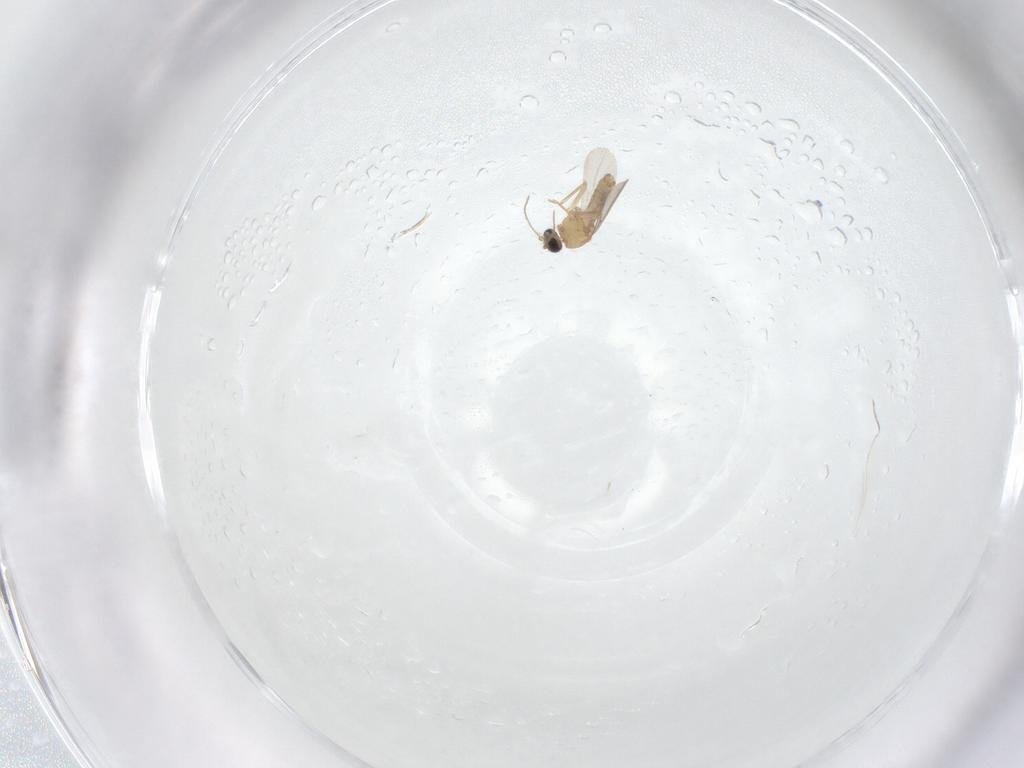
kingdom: Animalia
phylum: Arthropoda
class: Insecta
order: Diptera
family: Ceratopogonidae
